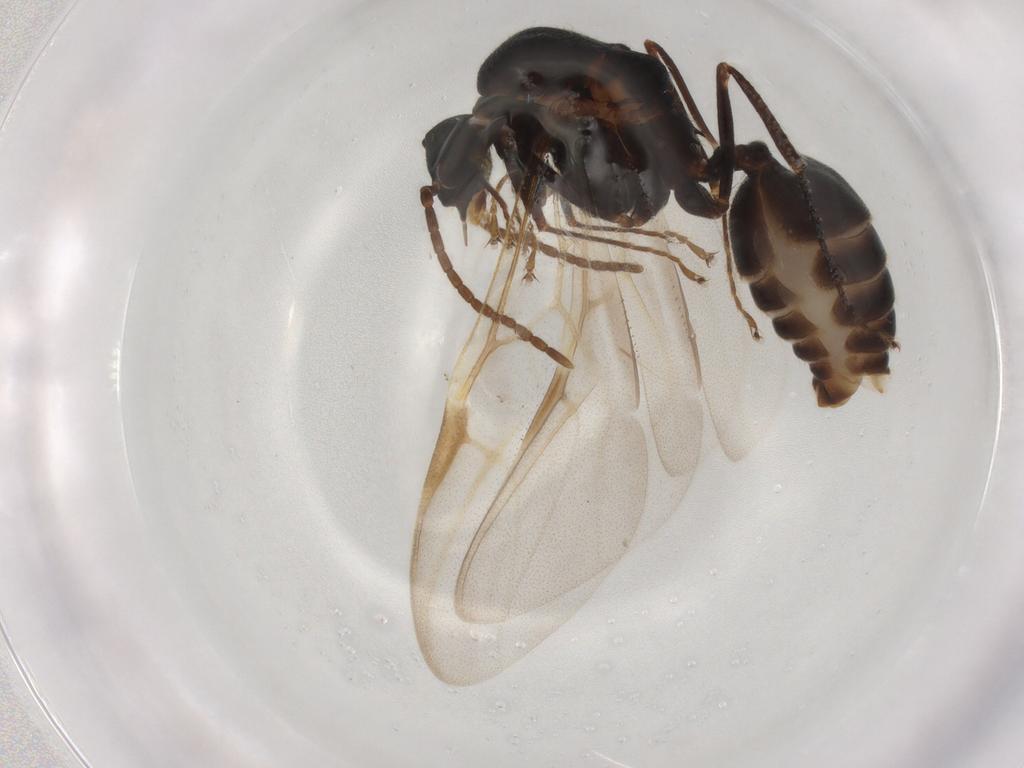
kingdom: Animalia
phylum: Arthropoda
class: Insecta
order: Hymenoptera
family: Formicidae
